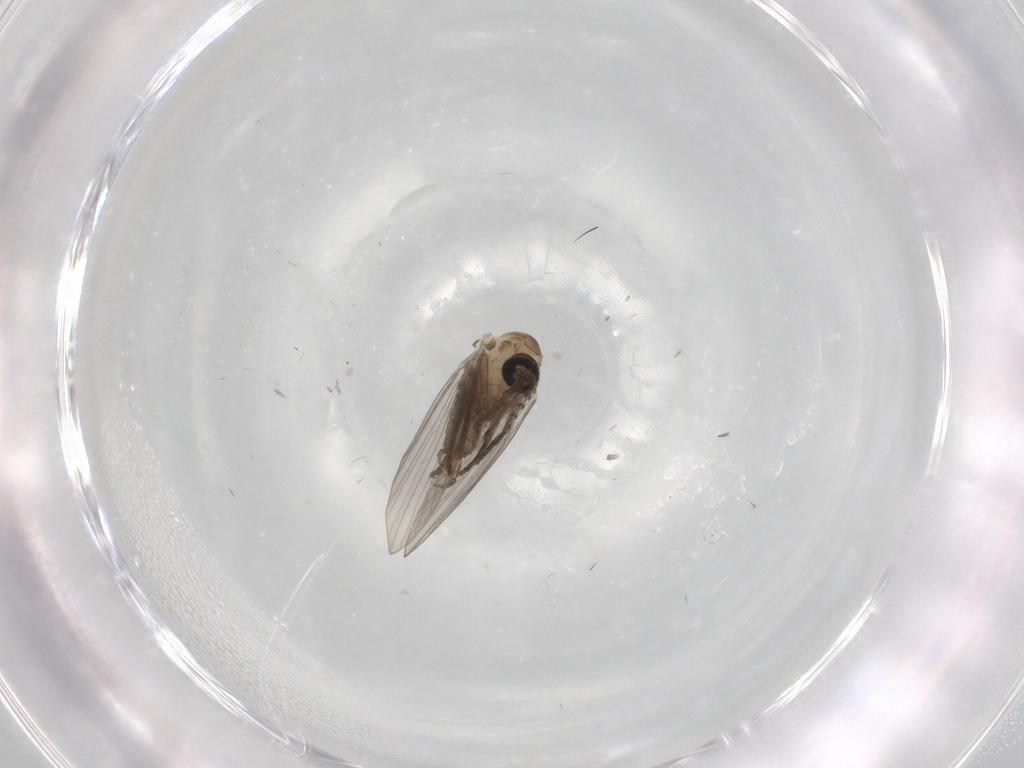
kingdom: Animalia
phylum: Arthropoda
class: Insecta
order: Diptera
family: Psychodidae
